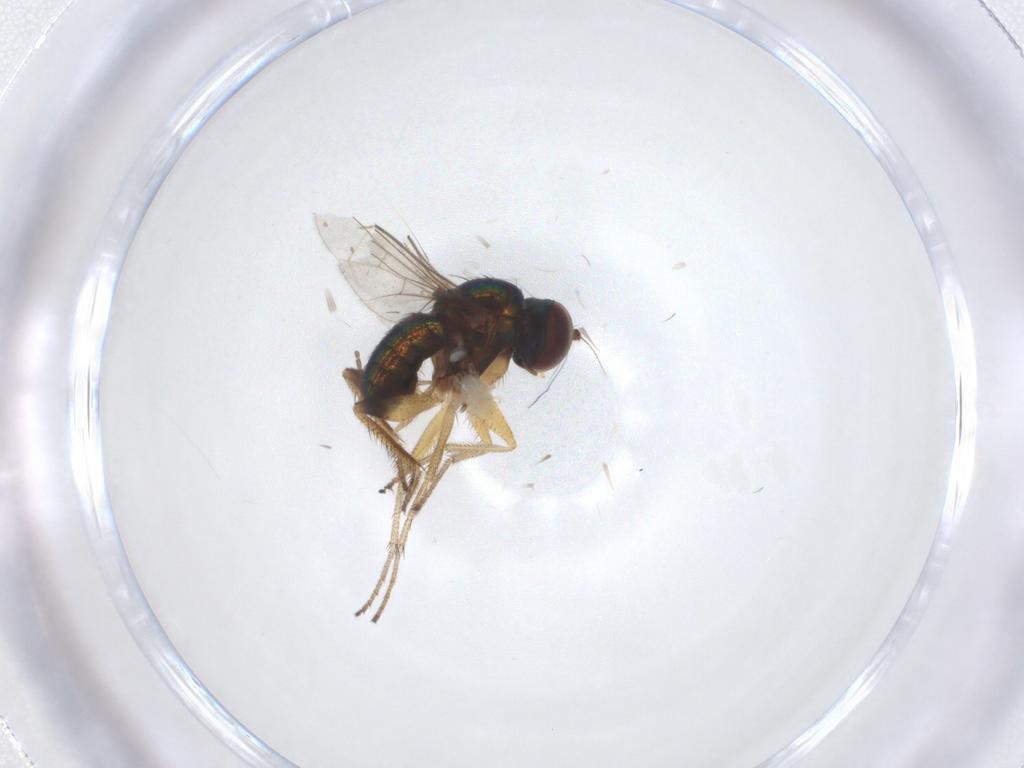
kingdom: Animalia
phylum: Arthropoda
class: Insecta
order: Diptera
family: Cecidomyiidae
